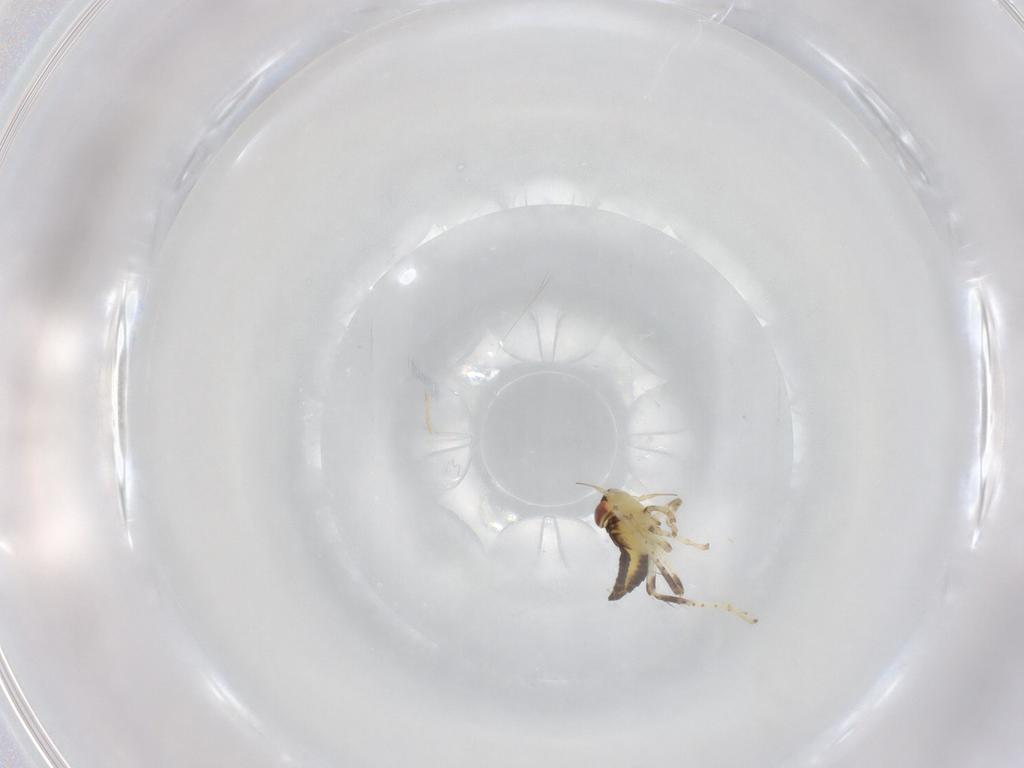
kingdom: Animalia
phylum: Arthropoda
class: Insecta
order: Hemiptera
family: Cicadellidae
